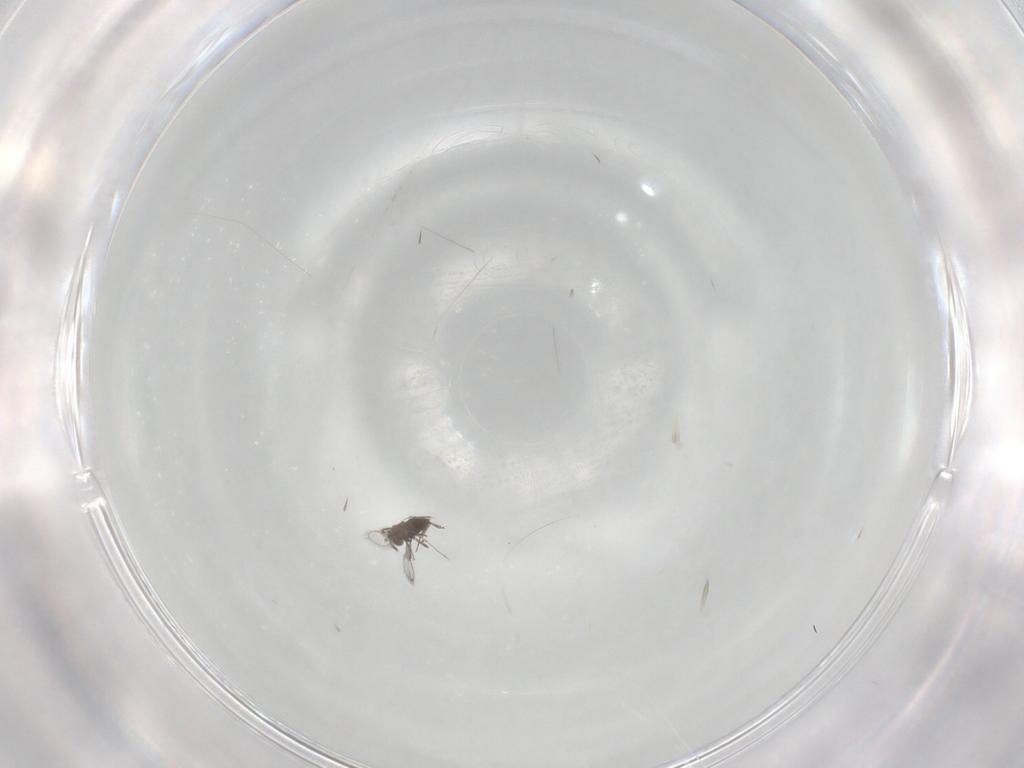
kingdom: Animalia
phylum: Arthropoda
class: Insecta
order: Hymenoptera
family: Trichogrammatidae
